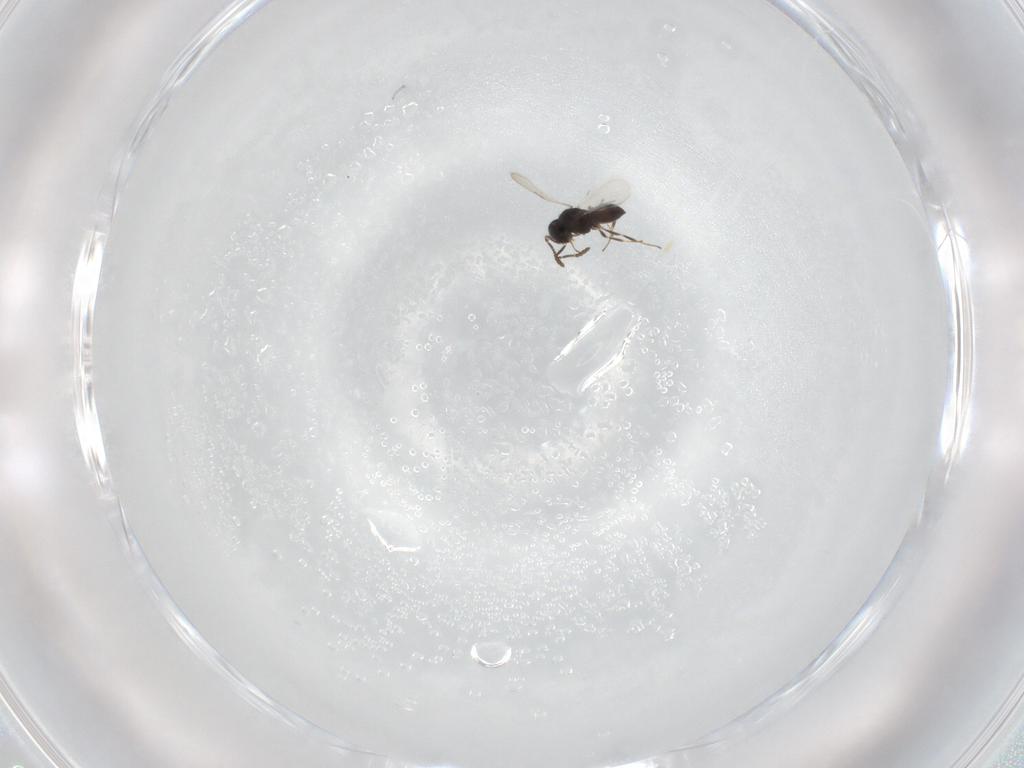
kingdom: Animalia
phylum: Arthropoda
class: Insecta
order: Hymenoptera
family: Scelionidae
